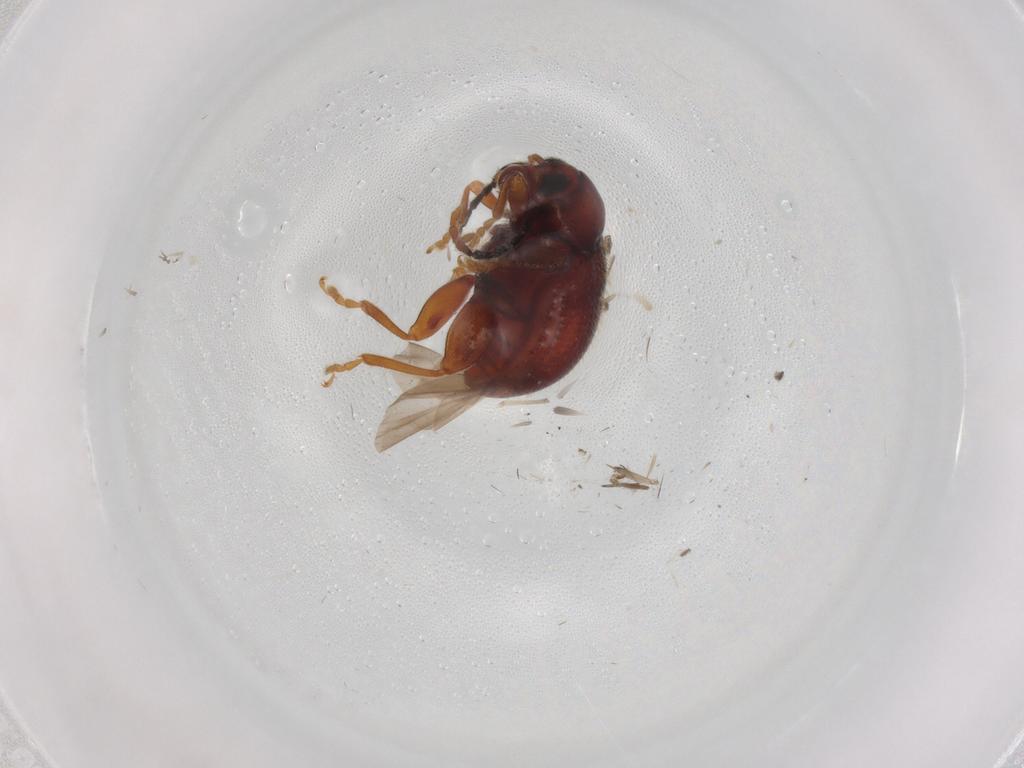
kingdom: Animalia
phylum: Arthropoda
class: Insecta
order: Coleoptera
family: Chrysomelidae
